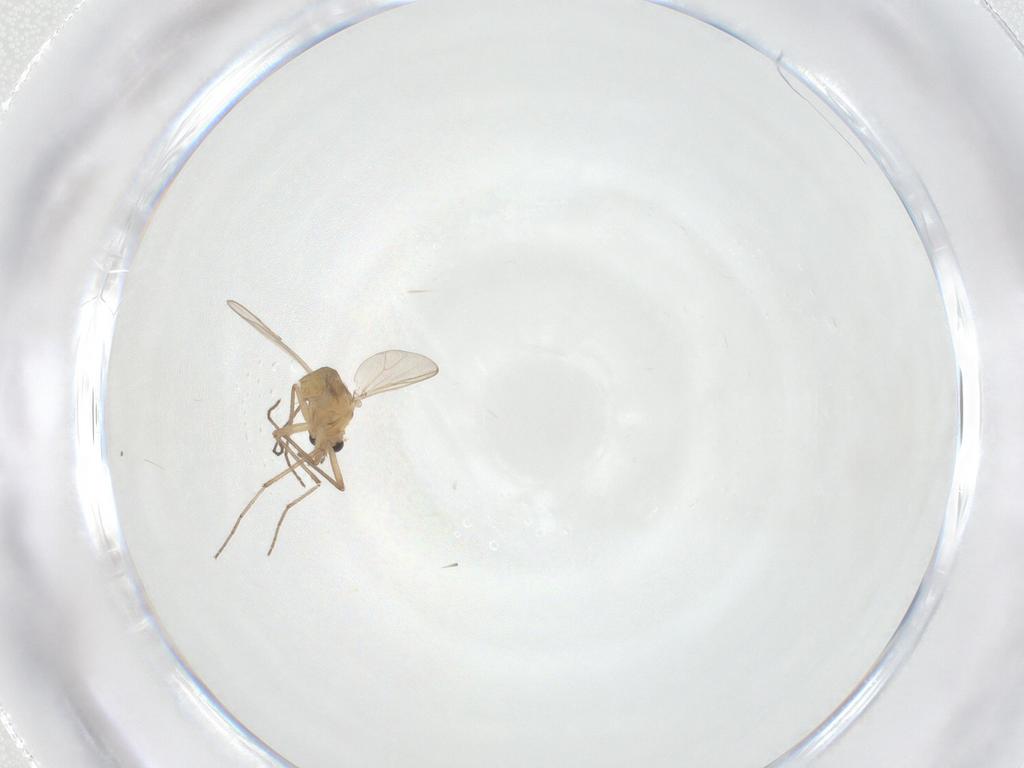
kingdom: Animalia
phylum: Arthropoda
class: Insecta
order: Diptera
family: Chironomidae
